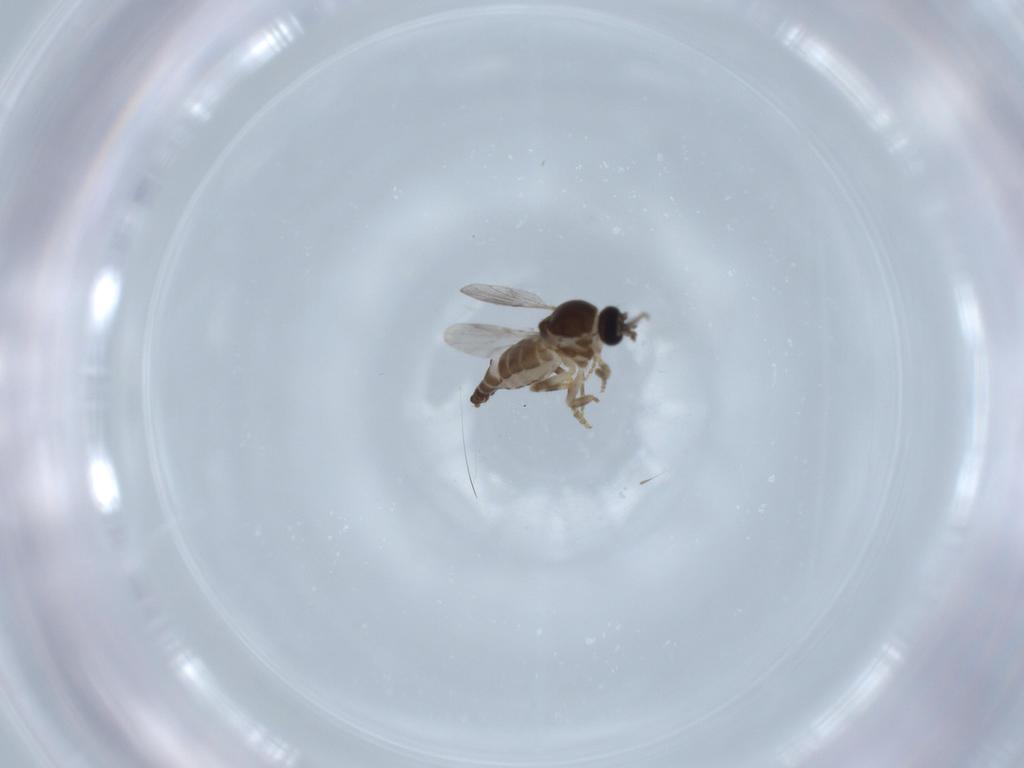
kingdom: Animalia
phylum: Arthropoda
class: Insecta
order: Diptera
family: Ceratopogonidae
